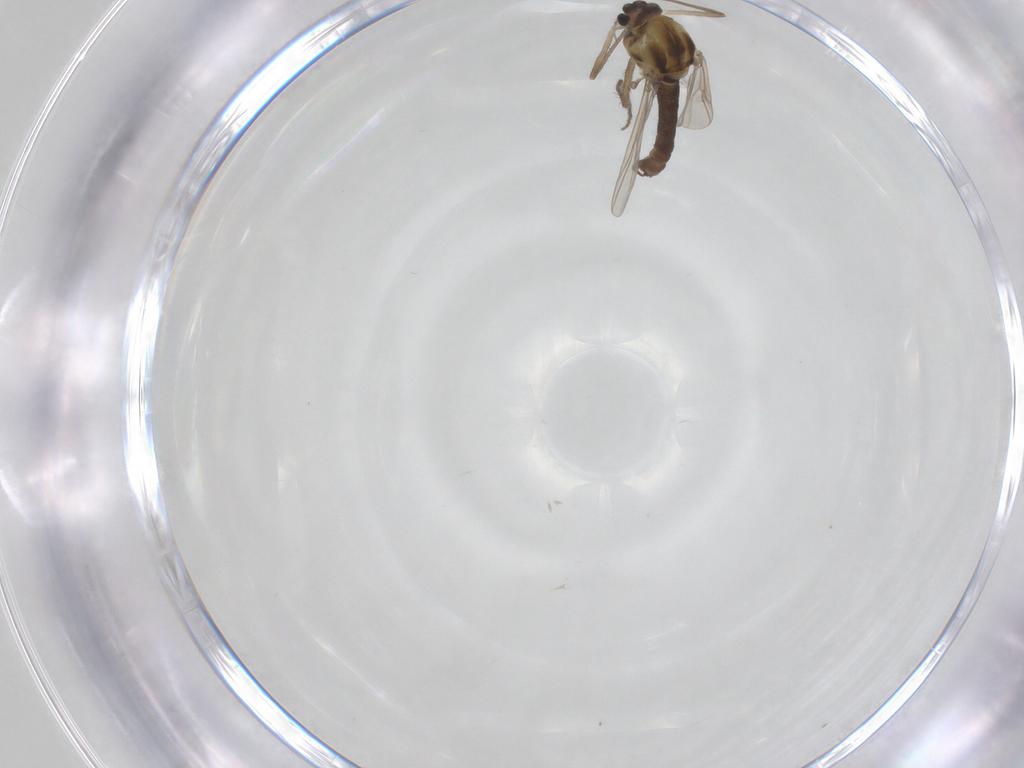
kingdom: Animalia
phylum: Arthropoda
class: Insecta
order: Diptera
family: Chironomidae
